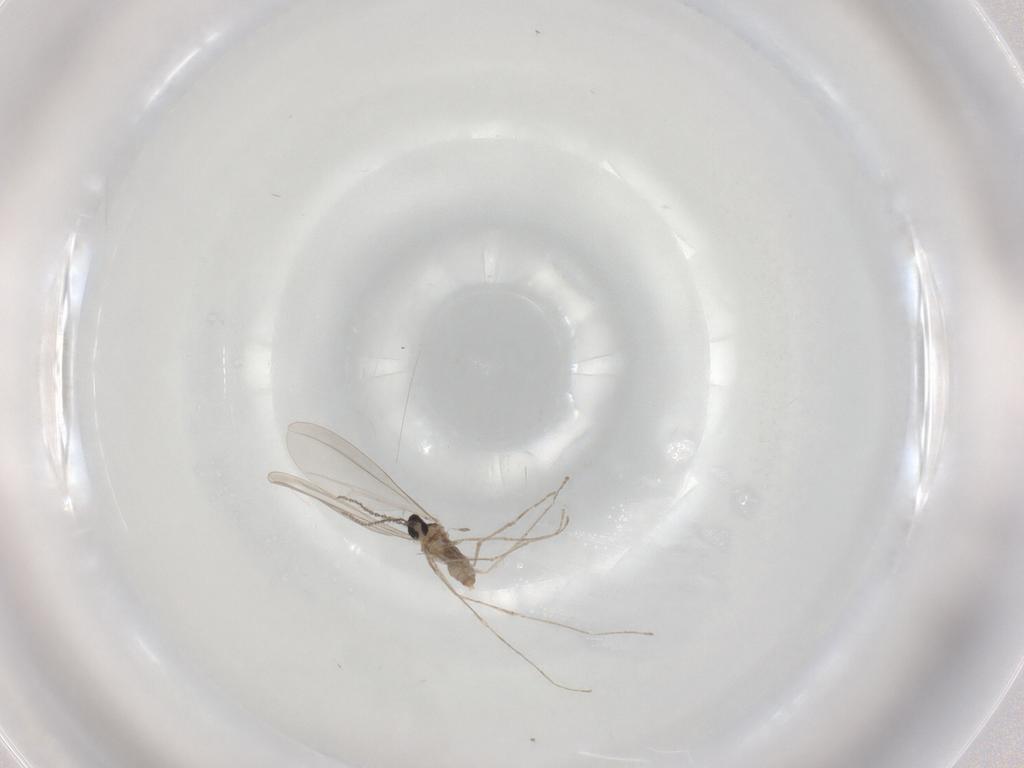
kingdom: Animalia
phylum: Arthropoda
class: Insecta
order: Diptera
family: Cecidomyiidae
